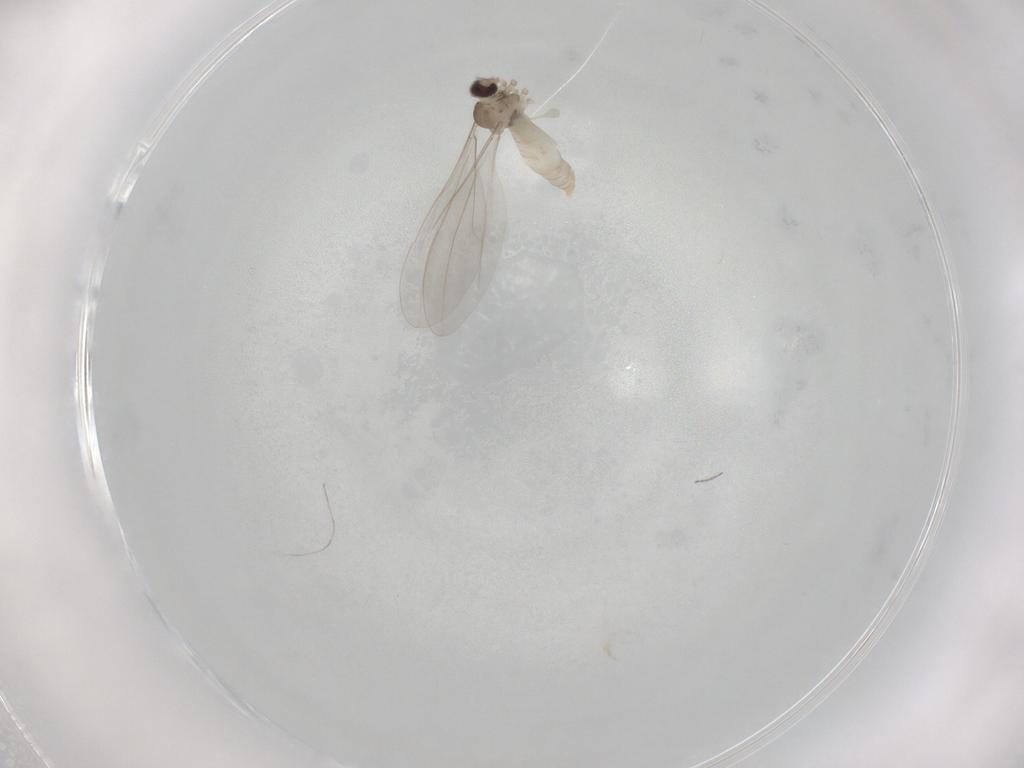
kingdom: Animalia
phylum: Arthropoda
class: Insecta
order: Diptera
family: Cecidomyiidae
